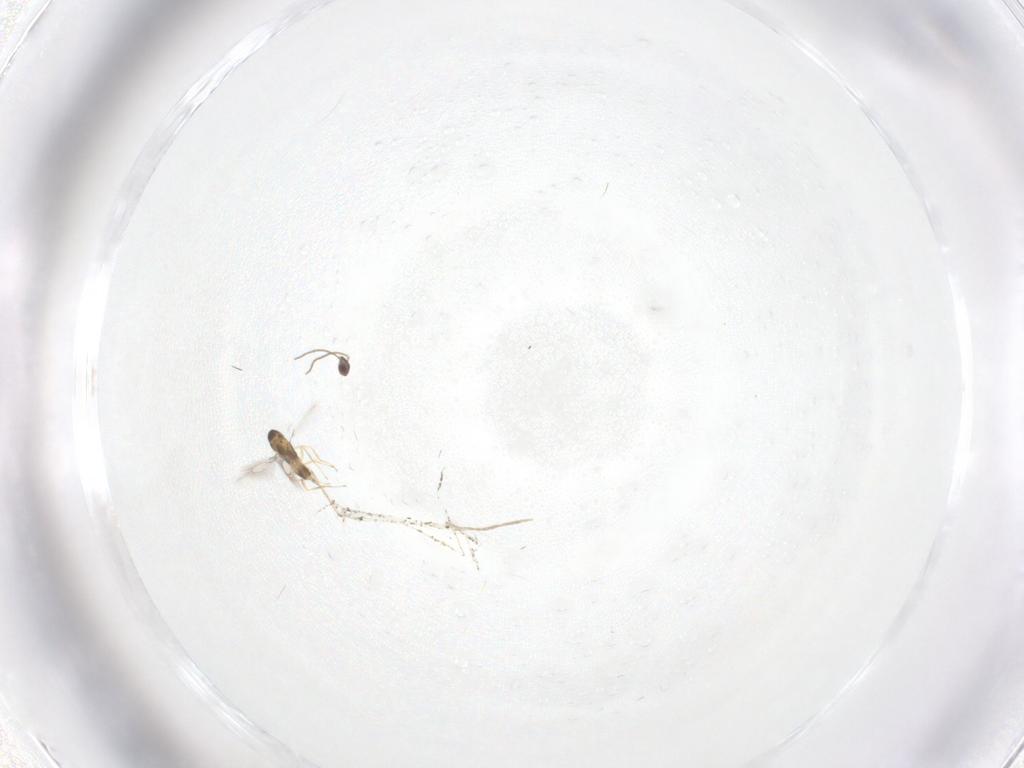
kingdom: Animalia
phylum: Arthropoda
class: Insecta
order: Hymenoptera
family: Mymaridae
